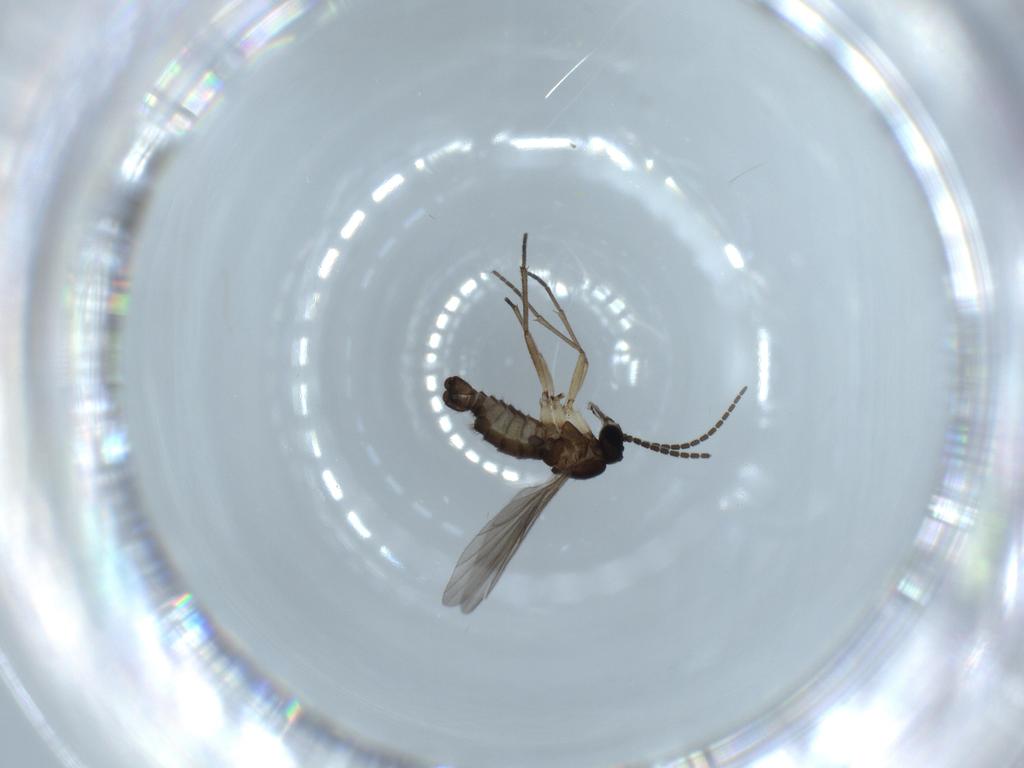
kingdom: Animalia
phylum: Arthropoda
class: Insecta
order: Diptera
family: Sciaridae
